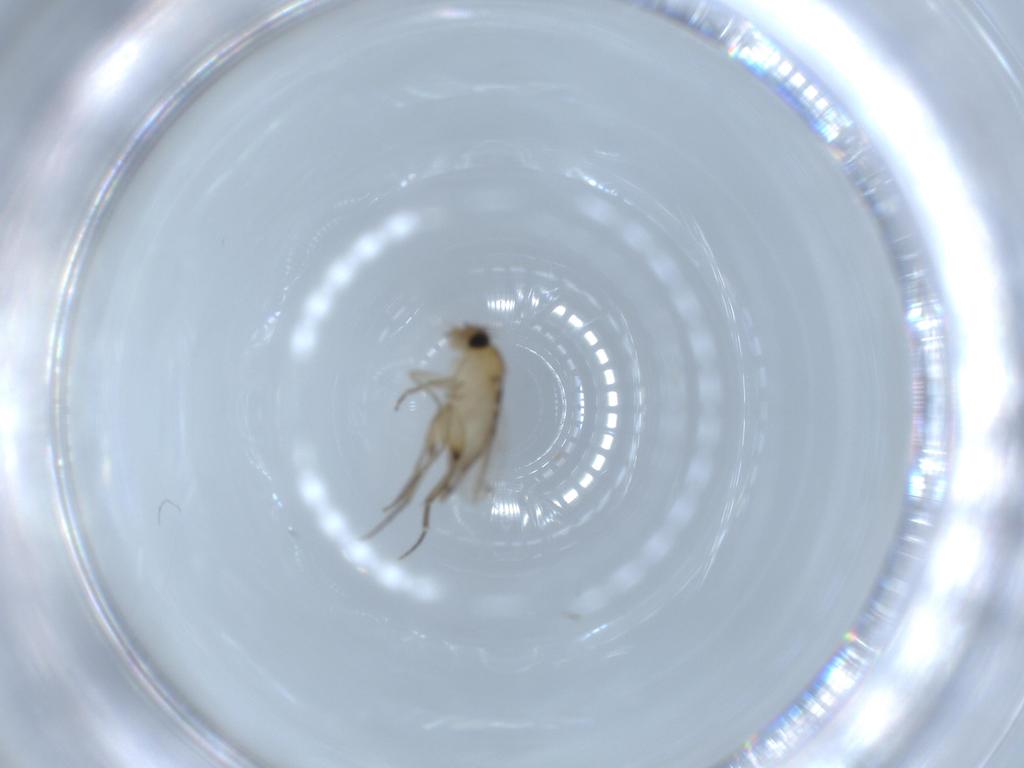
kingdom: Animalia
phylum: Arthropoda
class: Insecta
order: Diptera
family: Phoridae
